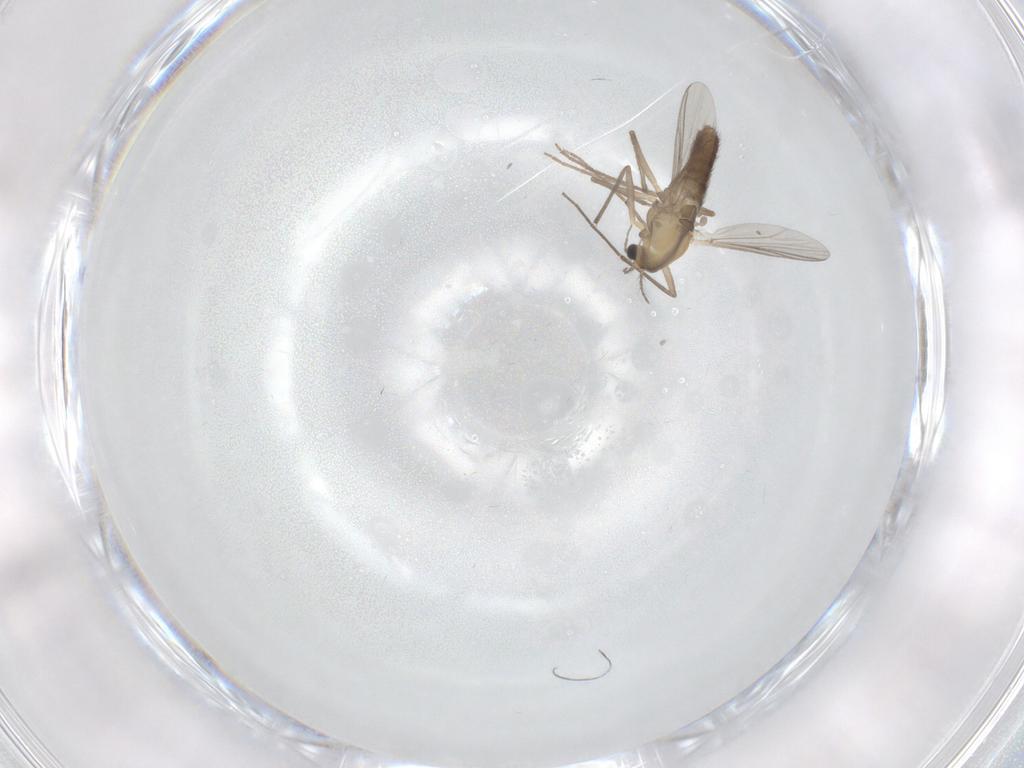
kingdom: Animalia
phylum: Arthropoda
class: Insecta
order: Diptera
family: Chironomidae
